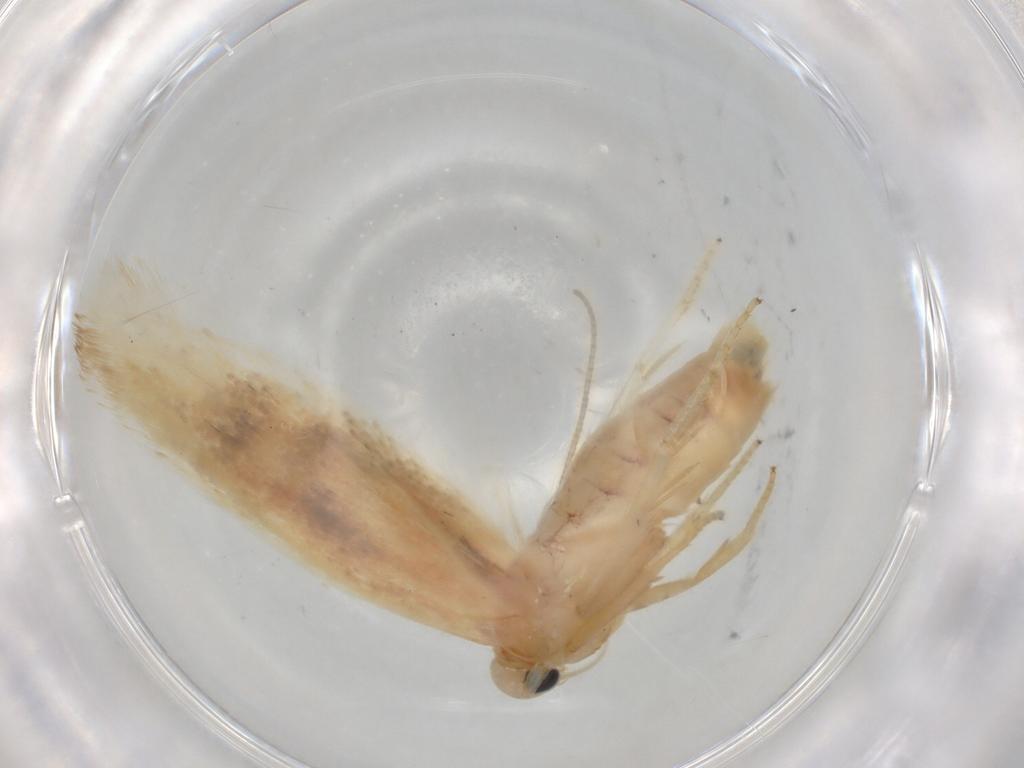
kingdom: Animalia
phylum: Arthropoda
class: Insecta
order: Lepidoptera
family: Geometridae
